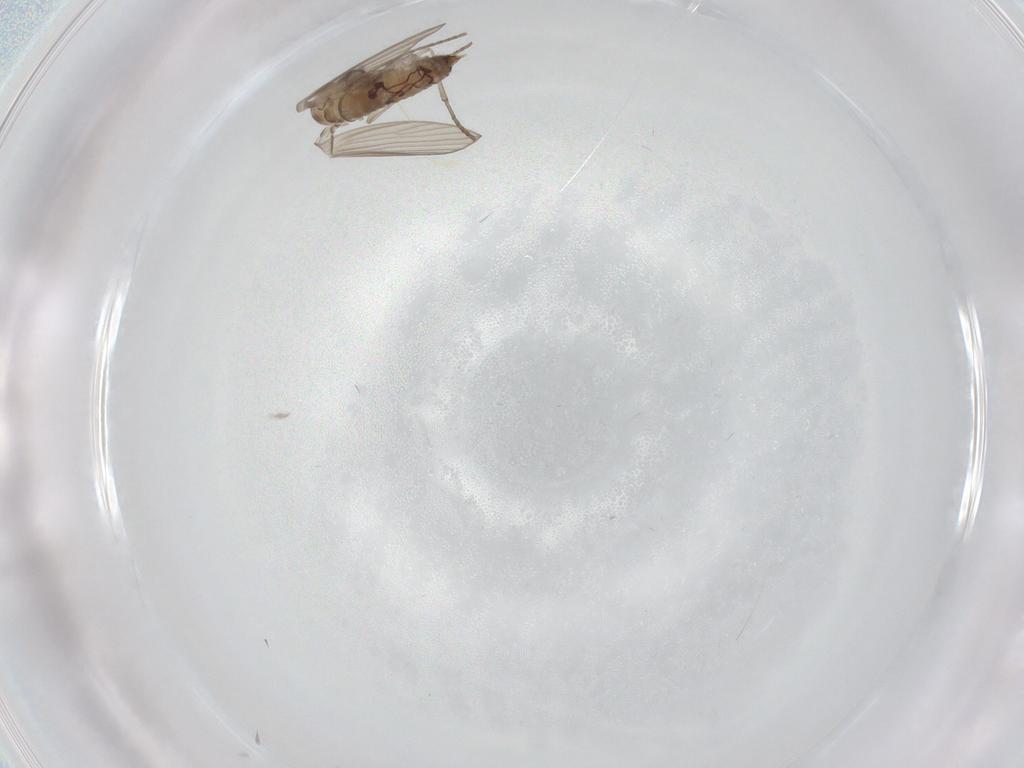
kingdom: Animalia
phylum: Arthropoda
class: Insecta
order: Diptera
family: Psychodidae
